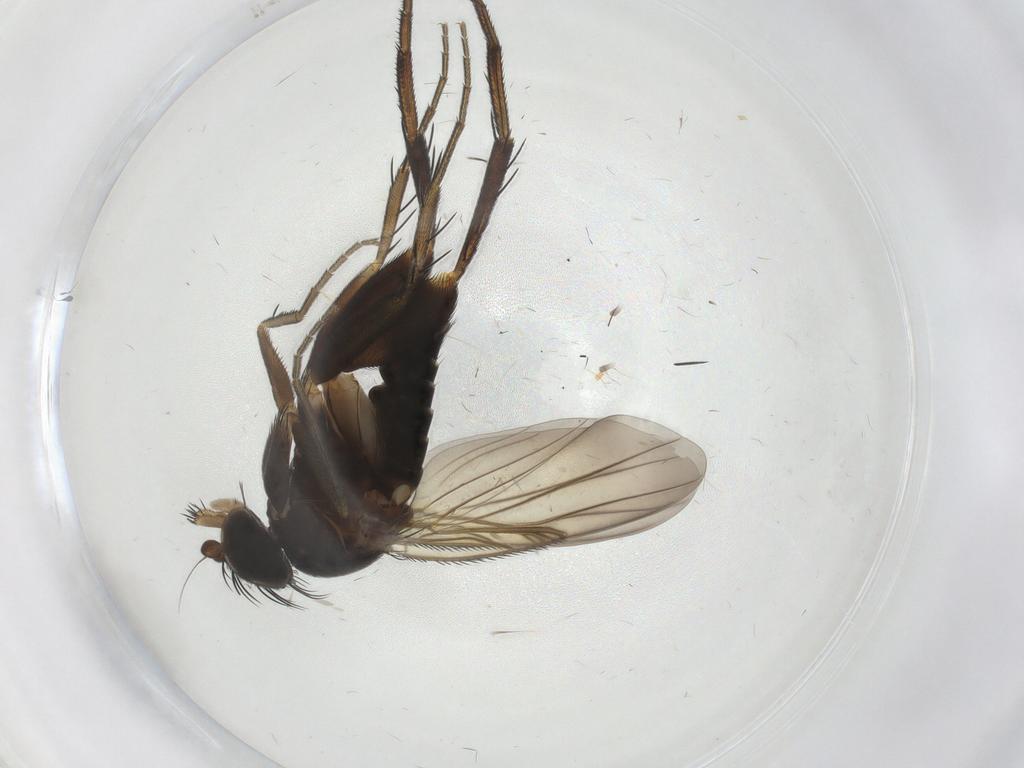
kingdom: Animalia
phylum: Arthropoda
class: Insecta
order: Diptera
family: Phoridae
